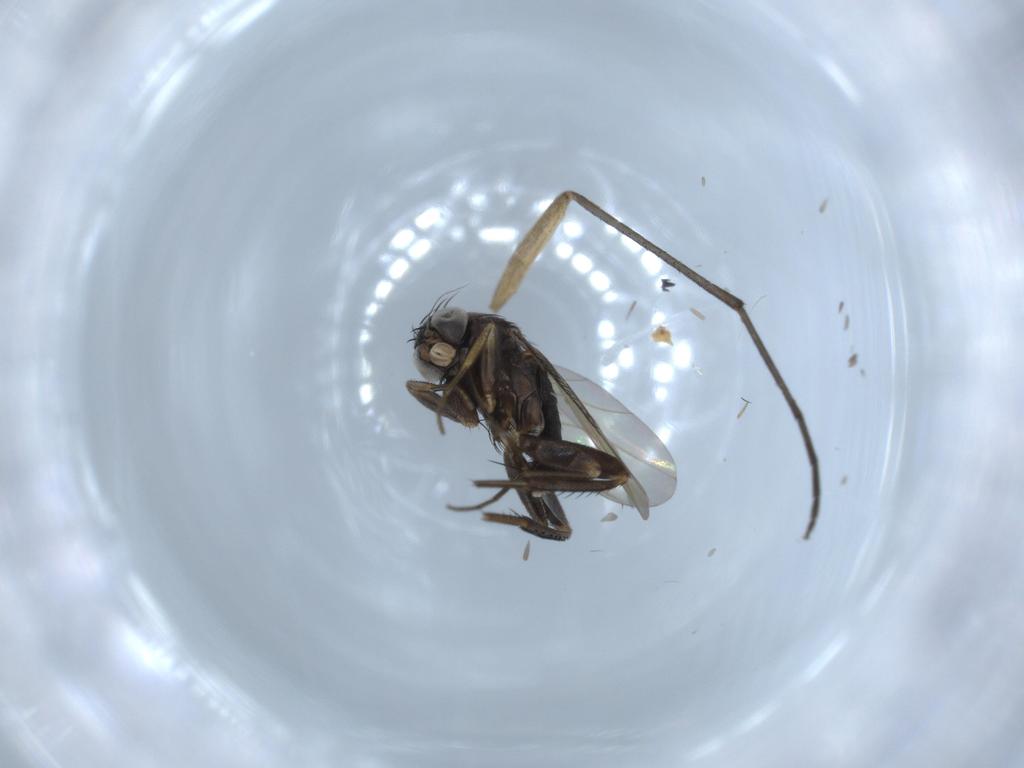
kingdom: Animalia
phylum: Arthropoda
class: Insecta
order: Diptera
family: Phoridae
